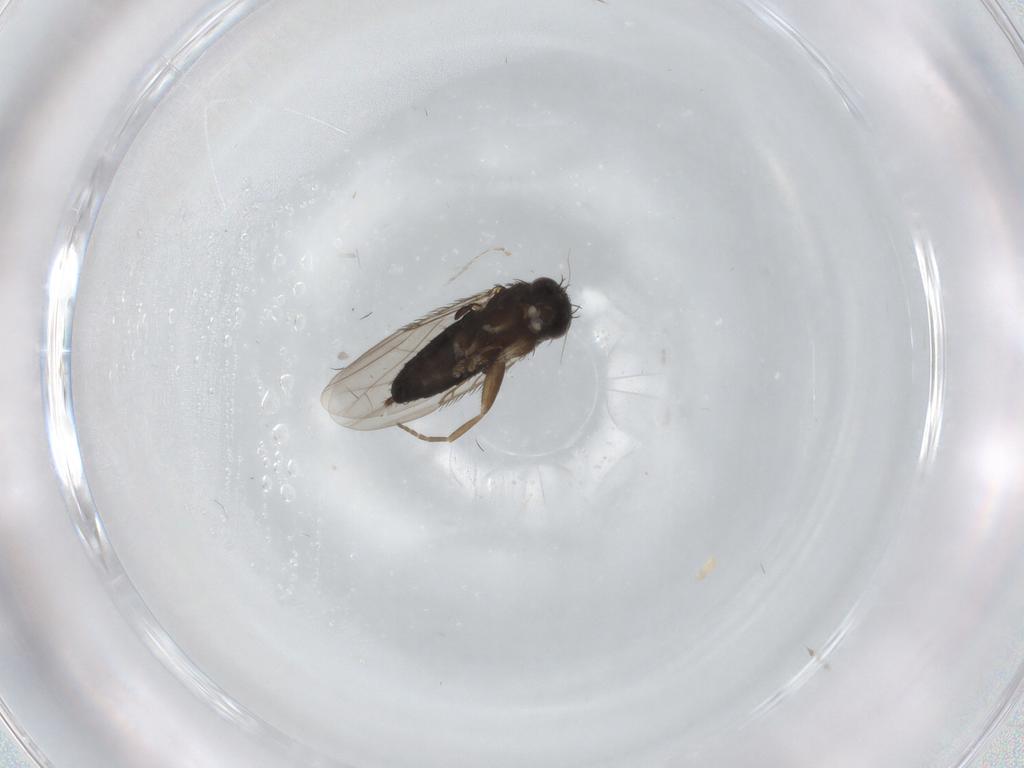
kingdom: Animalia
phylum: Arthropoda
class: Insecta
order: Diptera
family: Phoridae
